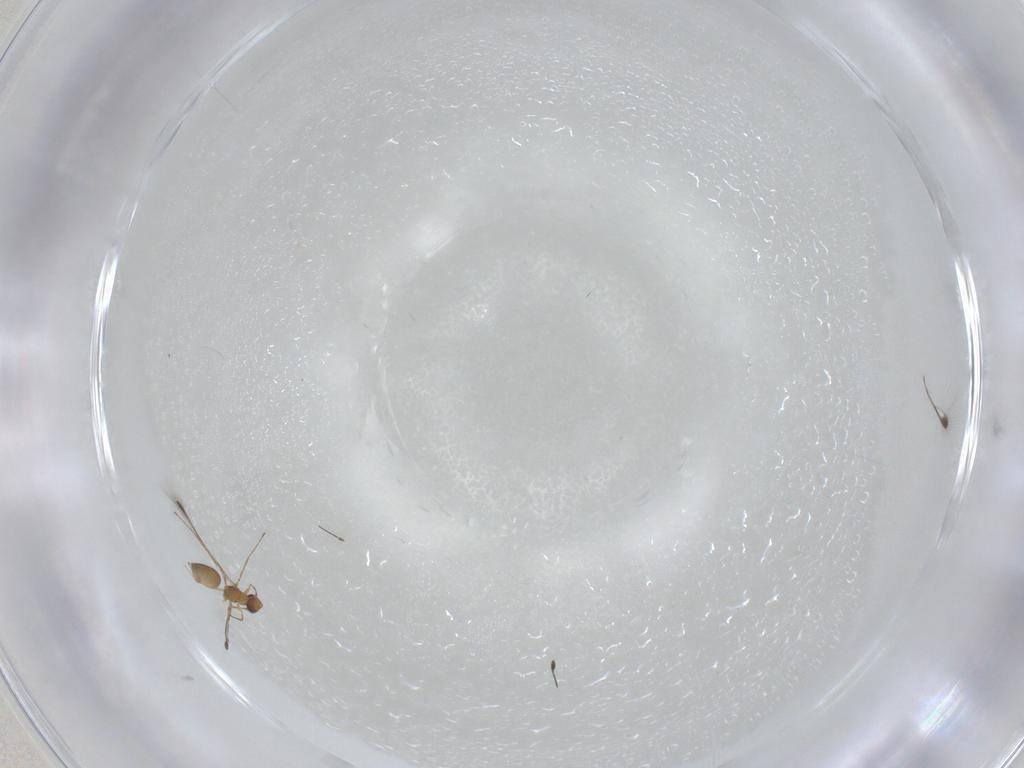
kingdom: Animalia
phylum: Arthropoda
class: Insecta
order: Hymenoptera
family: Mymaridae
